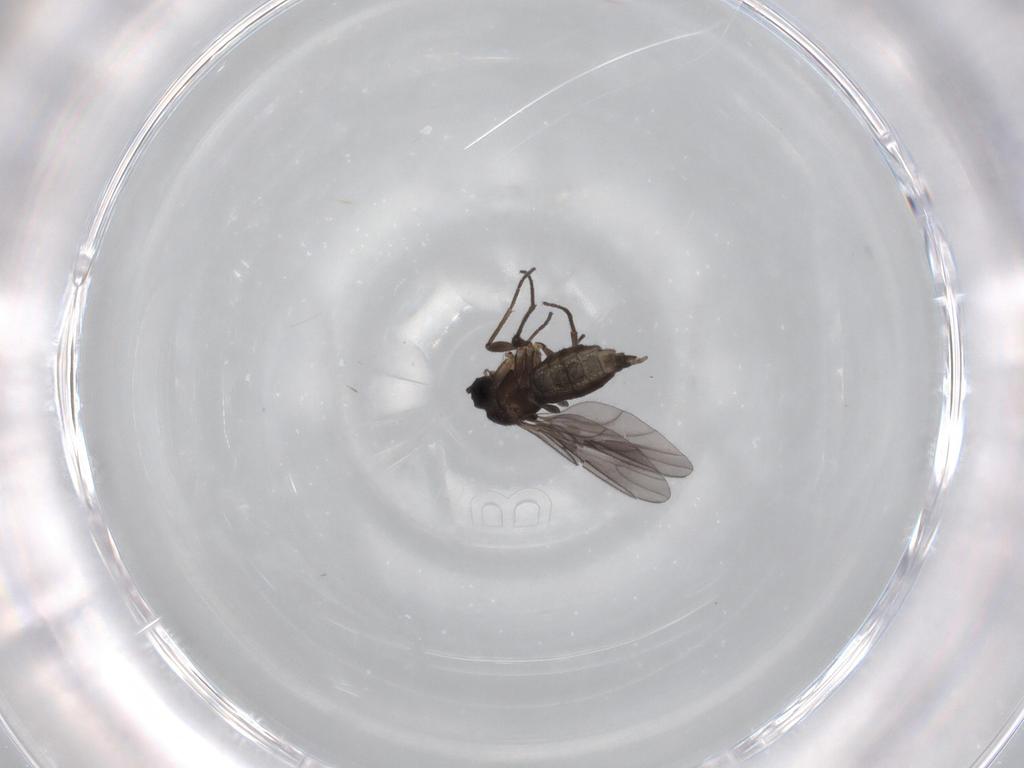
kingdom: Animalia
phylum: Arthropoda
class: Insecta
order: Diptera
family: Sciaridae
